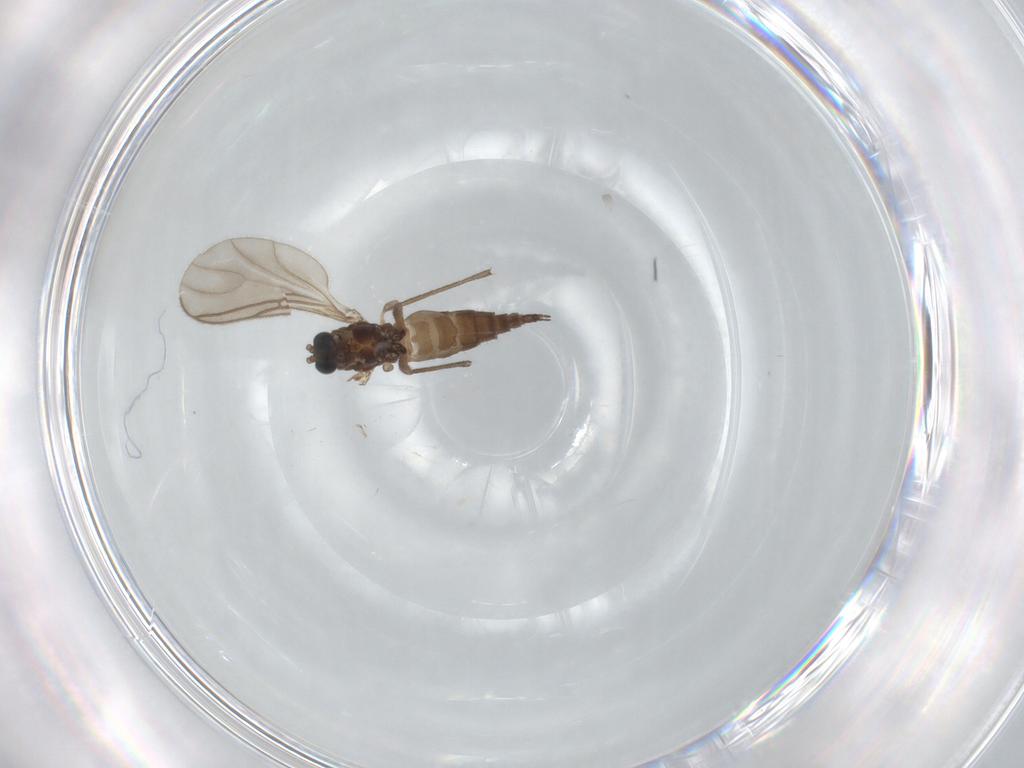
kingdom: Animalia
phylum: Arthropoda
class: Insecta
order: Diptera
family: Sciaridae
